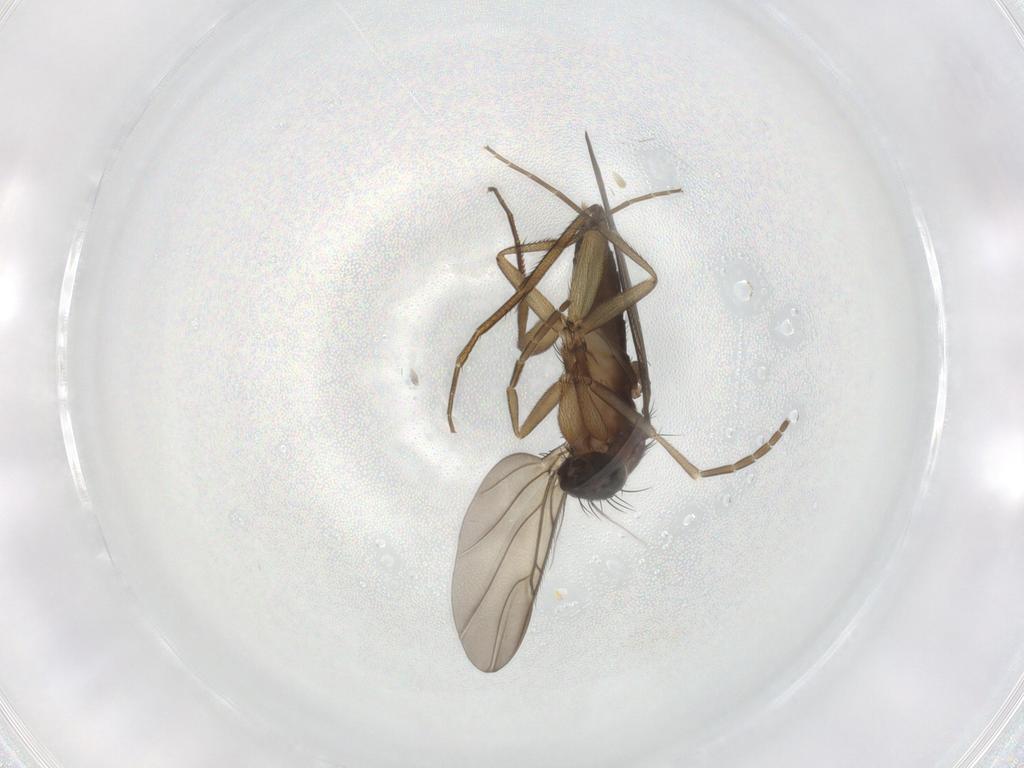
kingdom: Animalia
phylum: Arthropoda
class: Insecta
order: Diptera
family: Phoridae
